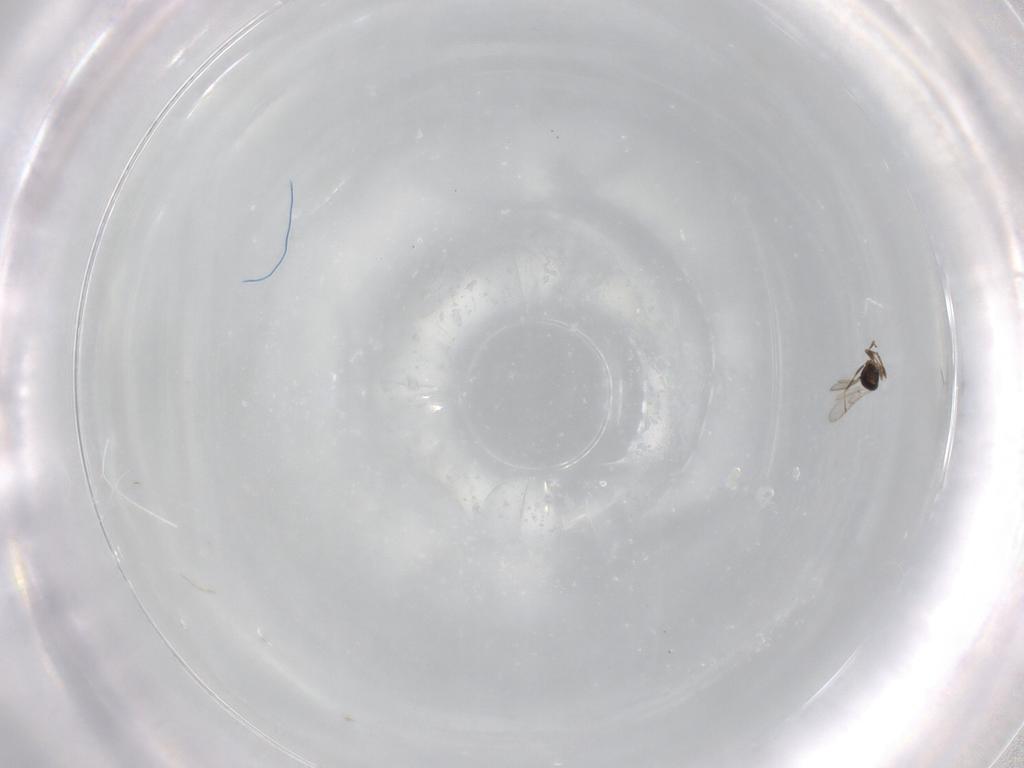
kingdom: Animalia
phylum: Arthropoda
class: Insecta
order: Hymenoptera
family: Scelionidae
